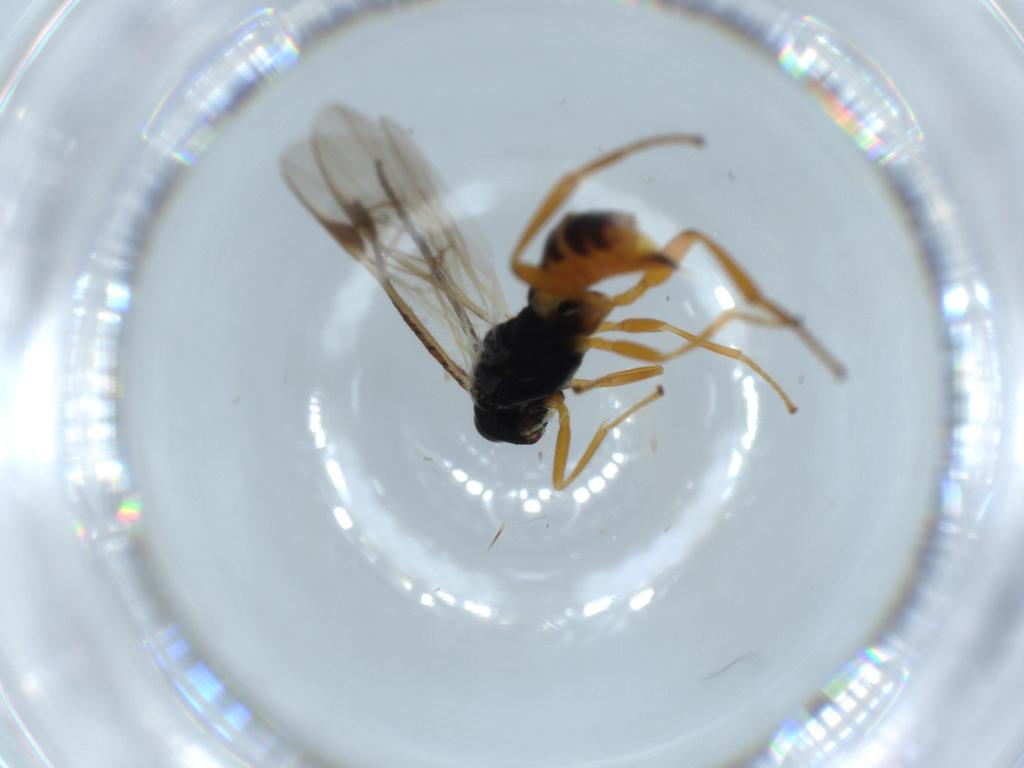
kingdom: Animalia
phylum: Arthropoda
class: Insecta
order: Hymenoptera
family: Braconidae
